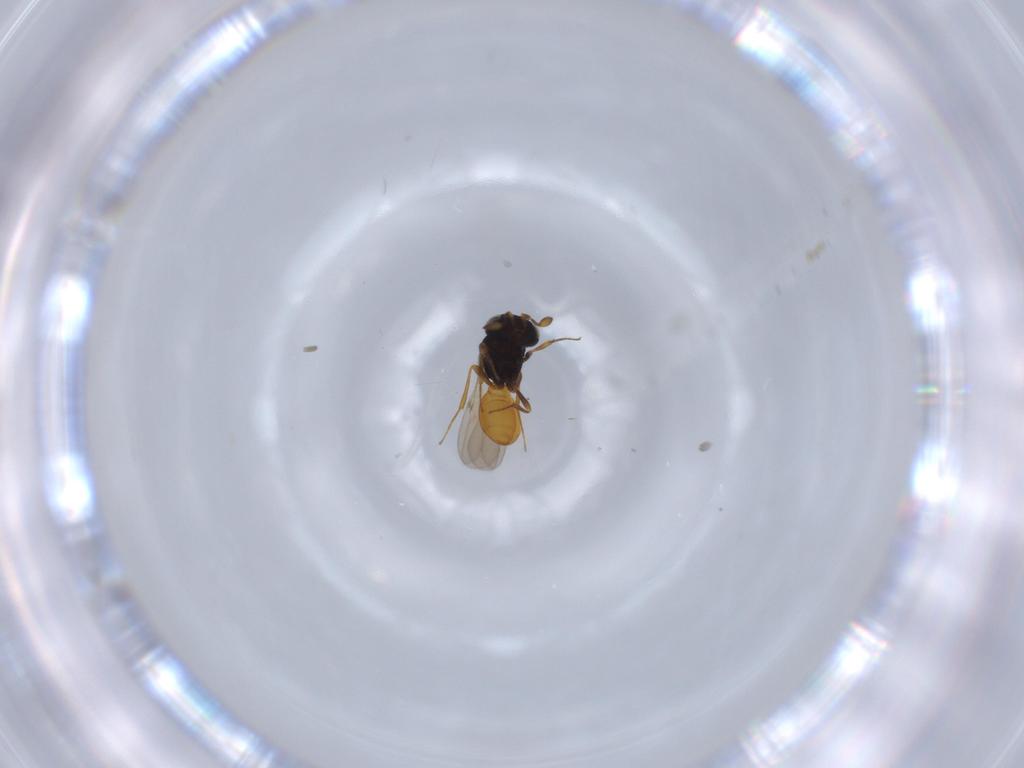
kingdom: Animalia
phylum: Arthropoda
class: Insecta
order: Hymenoptera
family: Scelionidae
